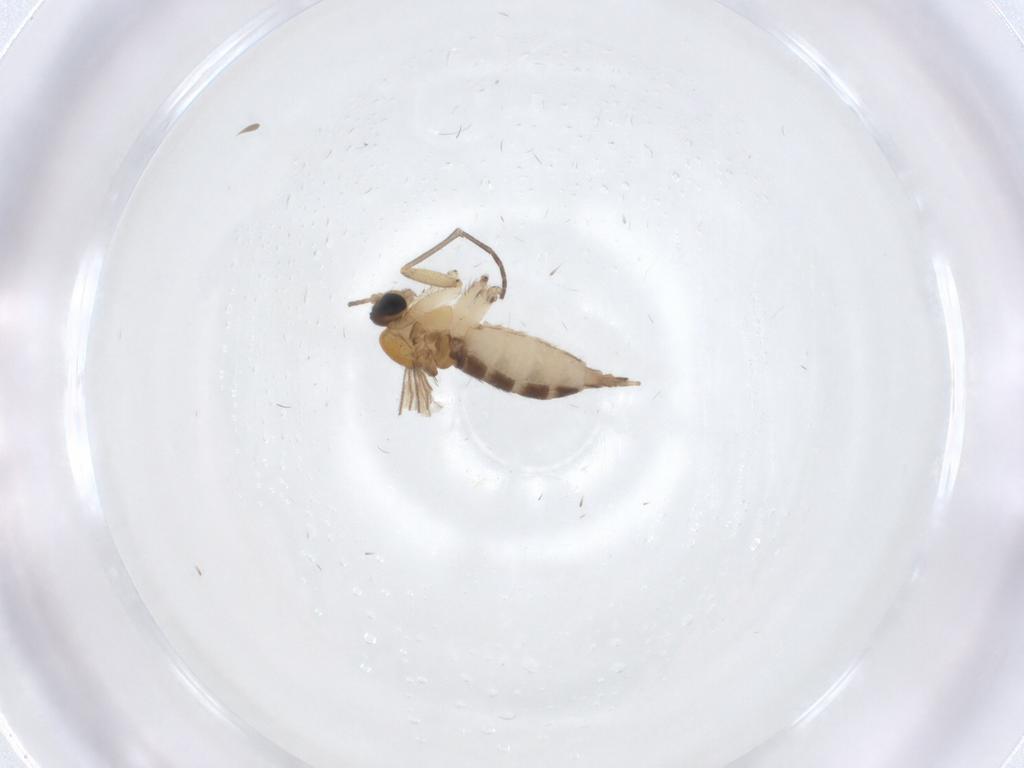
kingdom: Animalia
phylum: Arthropoda
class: Insecta
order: Diptera
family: Sciaridae
